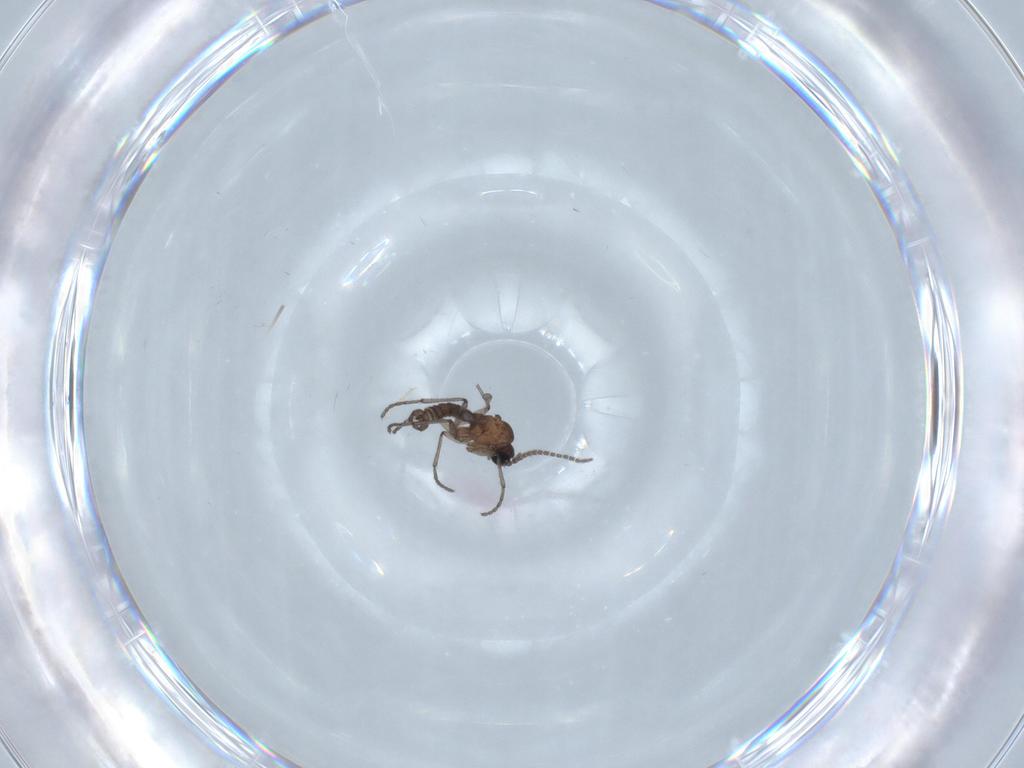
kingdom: Animalia
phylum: Arthropoda
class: Insecta
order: Diptera
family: Sciaridae
